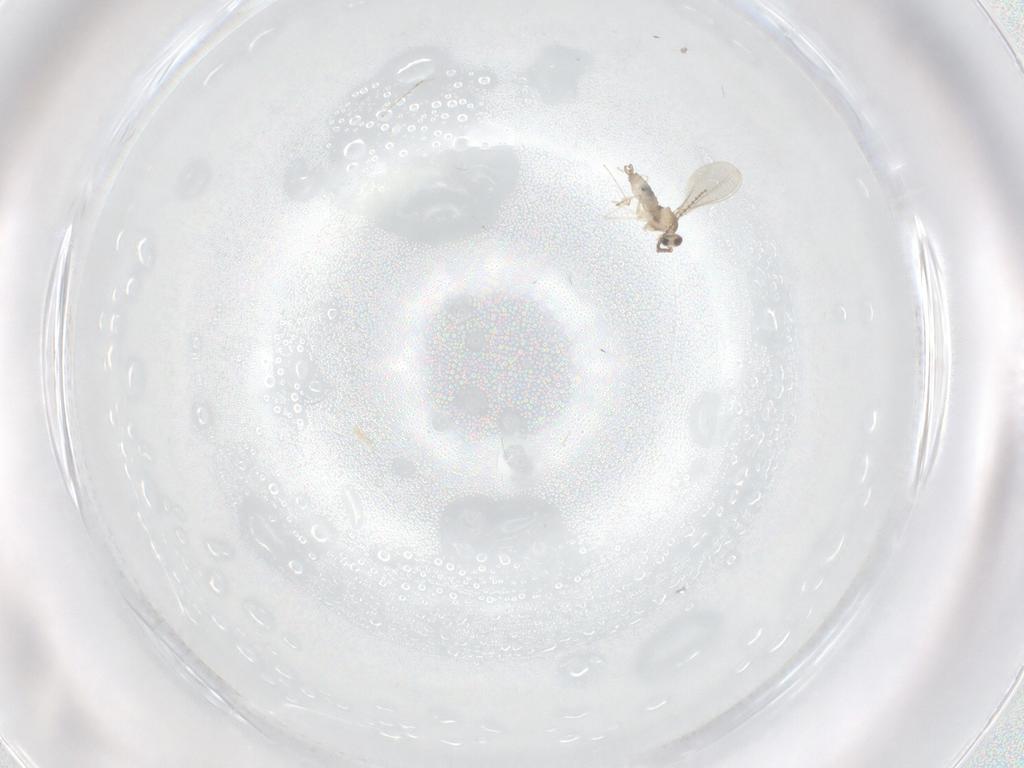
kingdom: Animalia
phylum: Arthropoda
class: Insecta
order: Diptera
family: Cecidomyiidae
